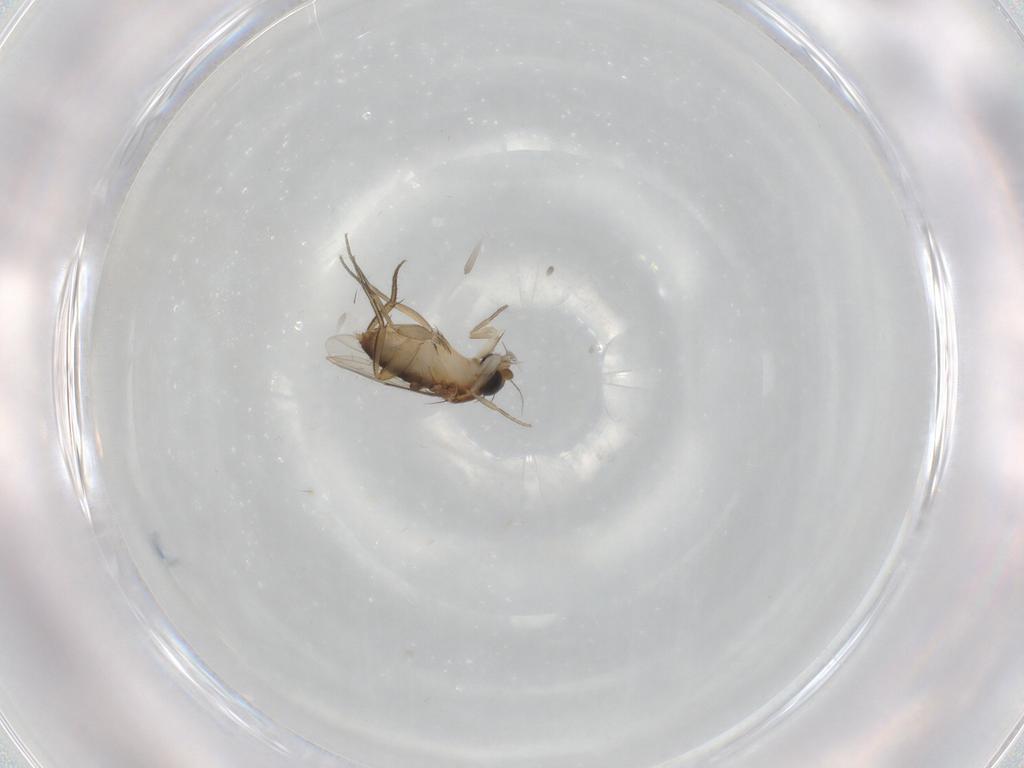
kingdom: Animalia
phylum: Arthropoda
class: Insecta
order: Diptera
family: Phoridae
